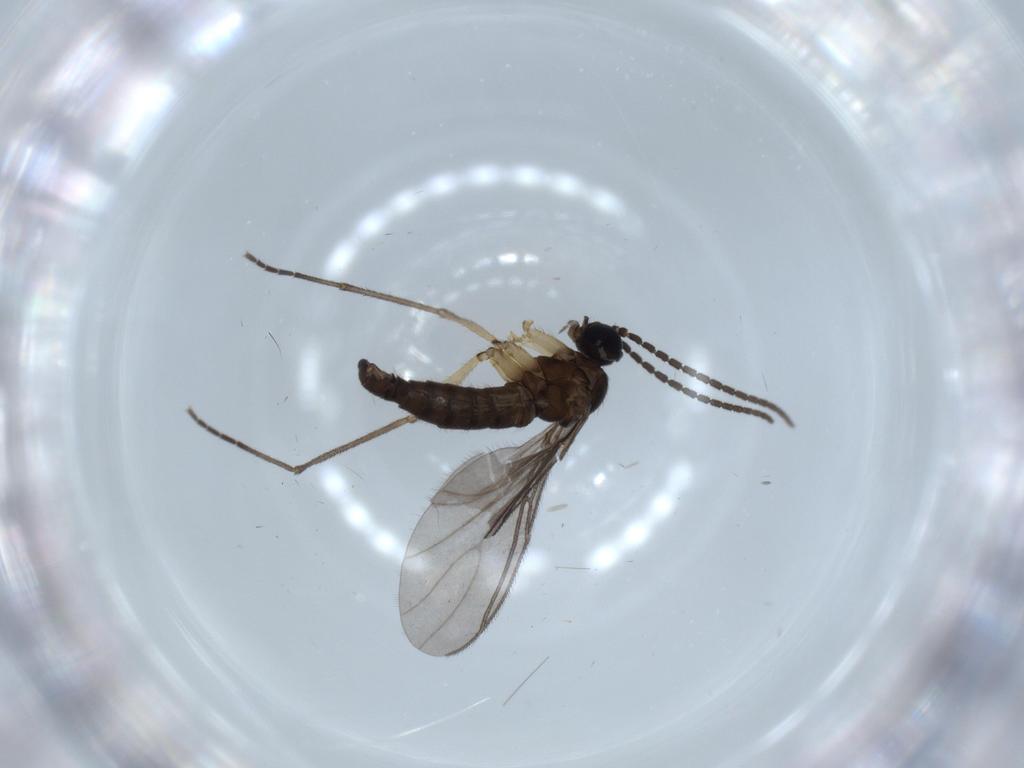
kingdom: Animalia
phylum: Arthropoda
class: Insecta
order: Diptera
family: Sciaridae
